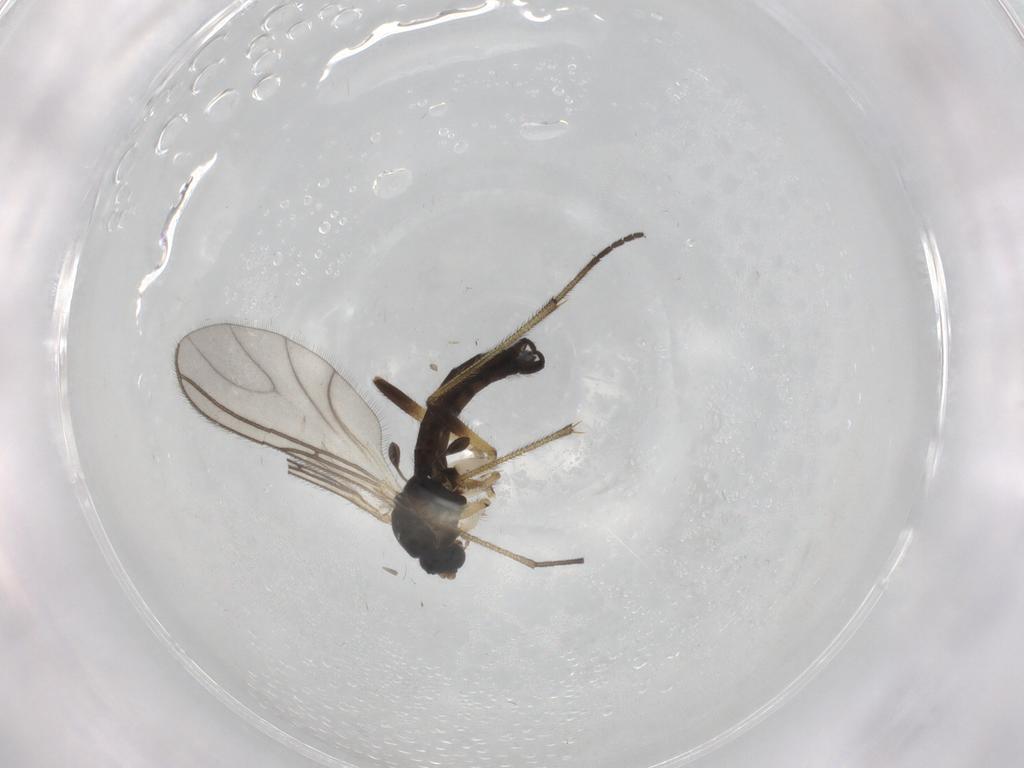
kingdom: Animalia
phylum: Arthropoda
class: Insecta
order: Diptera
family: Sciaridae
